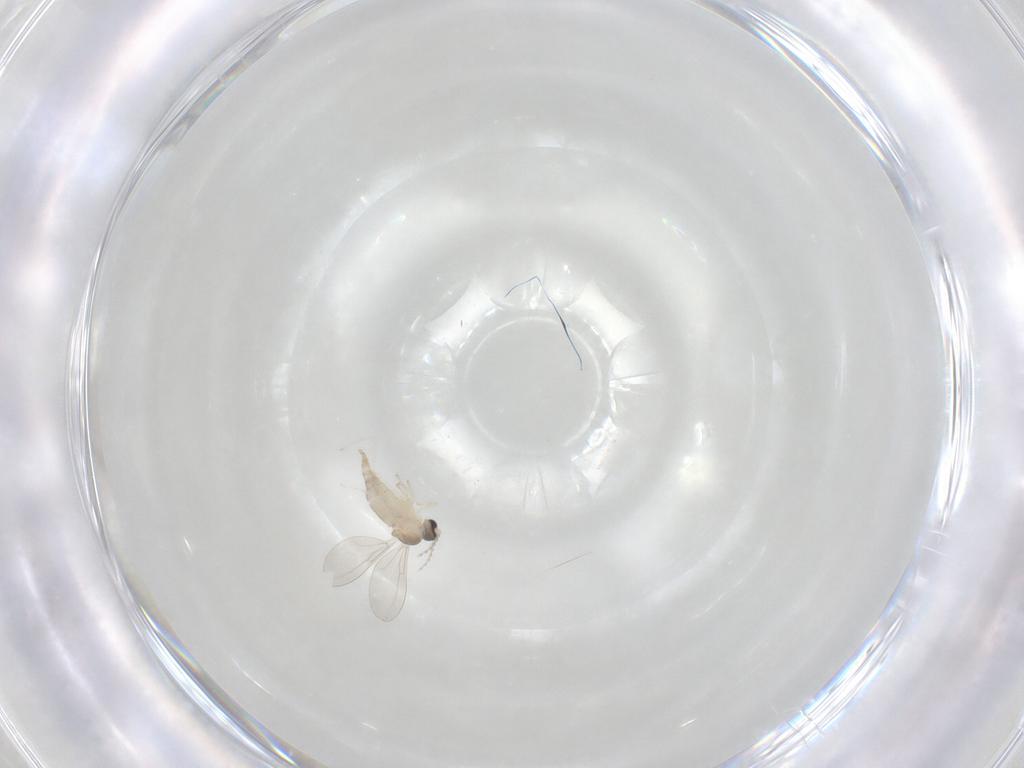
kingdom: Animalia
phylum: Arthropoda
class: Insecta
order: Diptera
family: Cecidomyiidae
